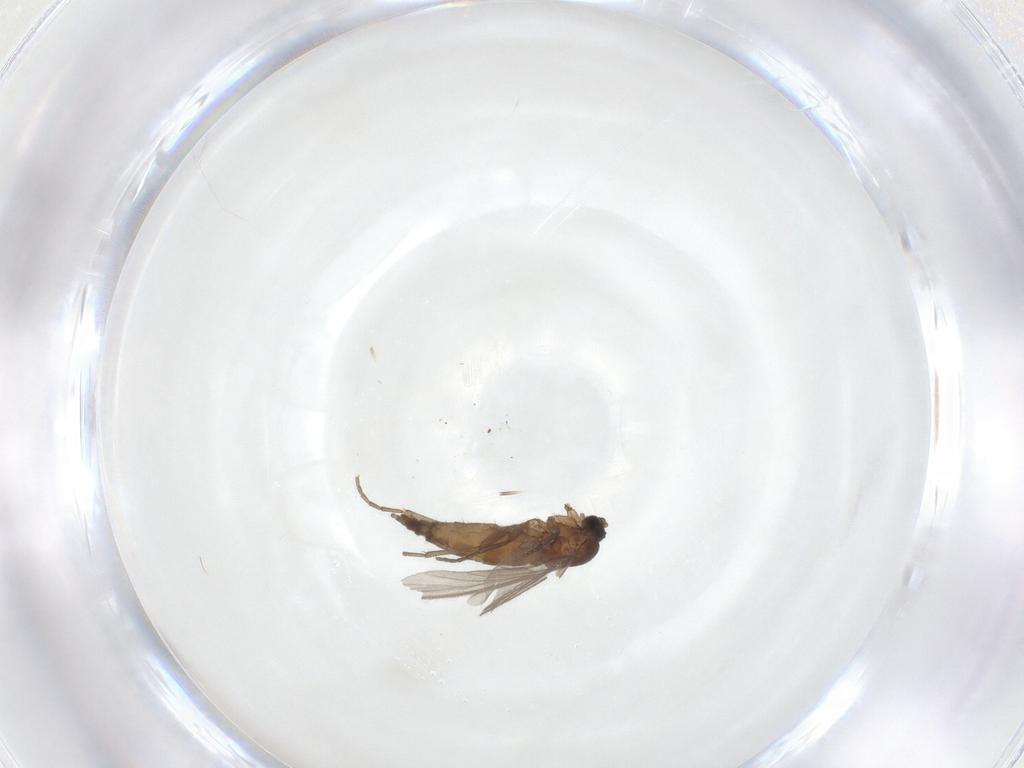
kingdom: Animalia
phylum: Arthropoda
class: Insecta
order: Diptera
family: Sciaridae
